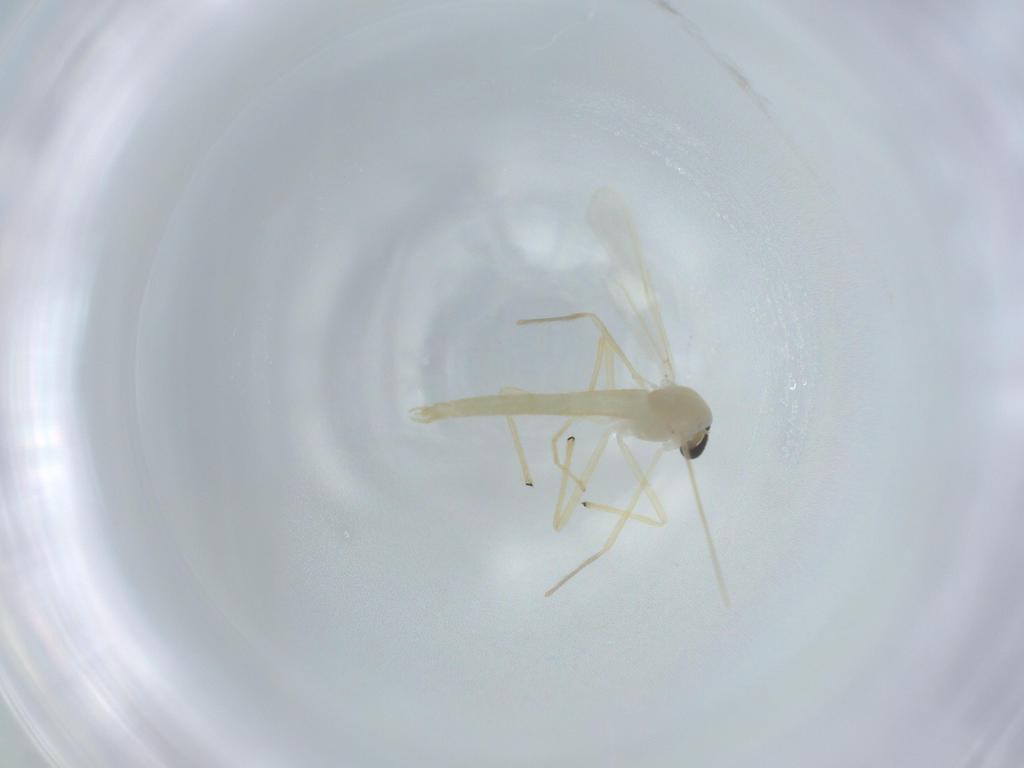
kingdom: Animalia
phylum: Arthropoda
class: Insecta
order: Diptera
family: Chironomidae
